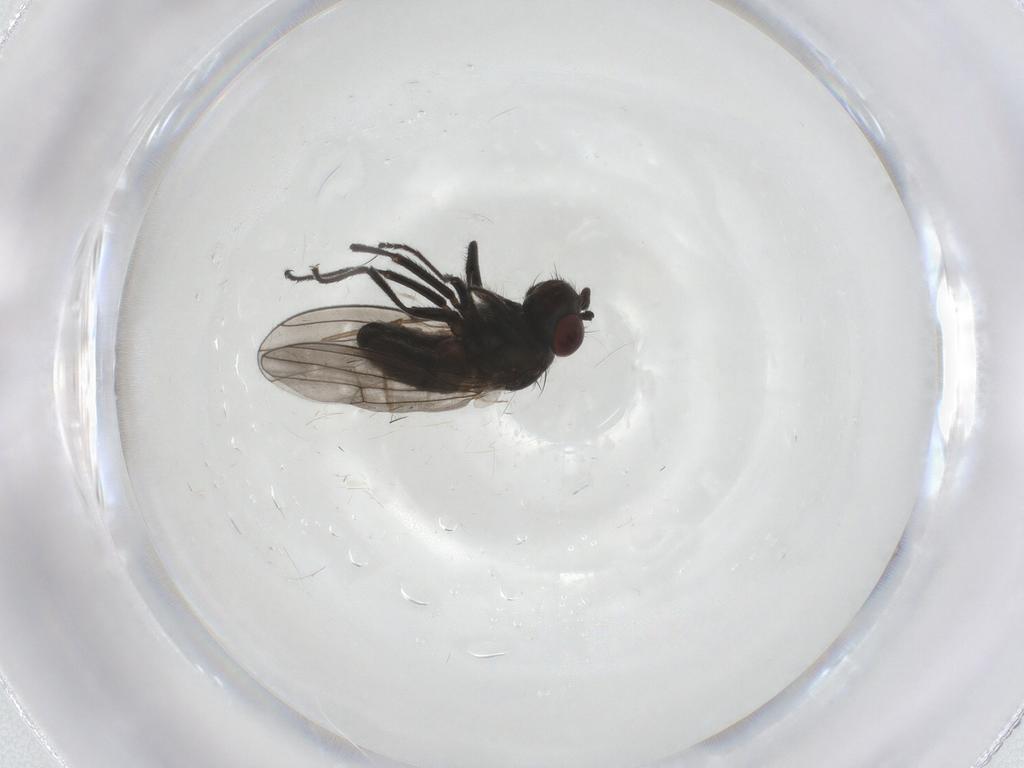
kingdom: Animalia
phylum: Arthropoda
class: Insecta
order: Diptera
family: Ephydridae
